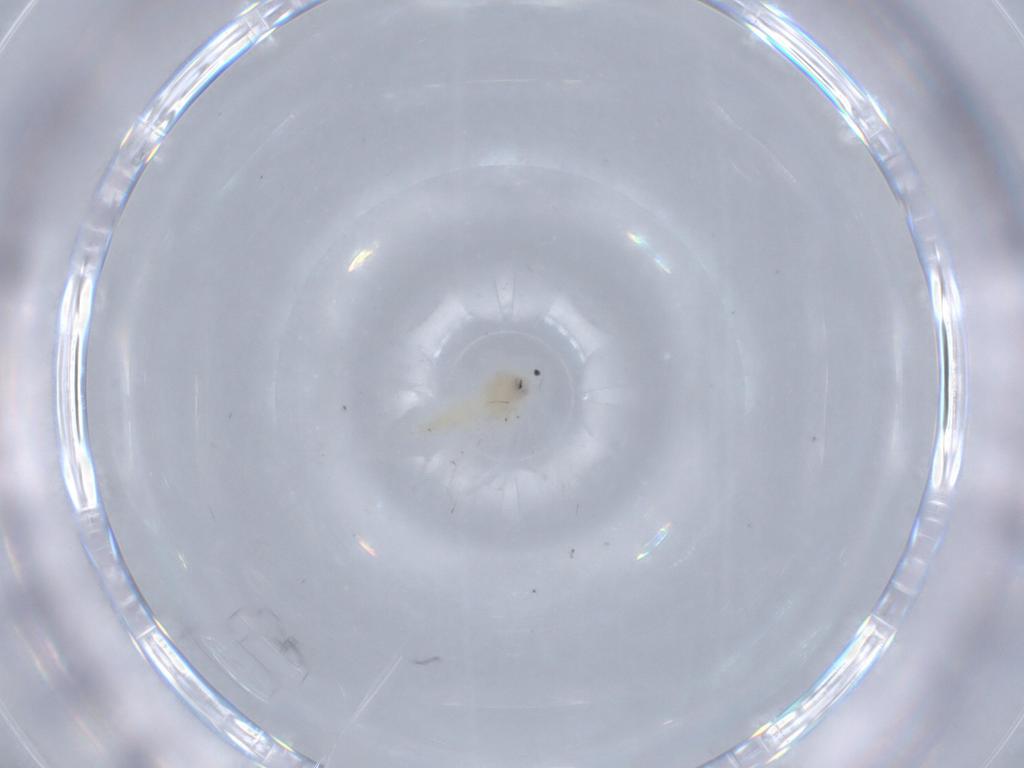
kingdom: Animalia
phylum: Arthropoda
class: Insecta
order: Hemiptera
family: Aleyrodidae
